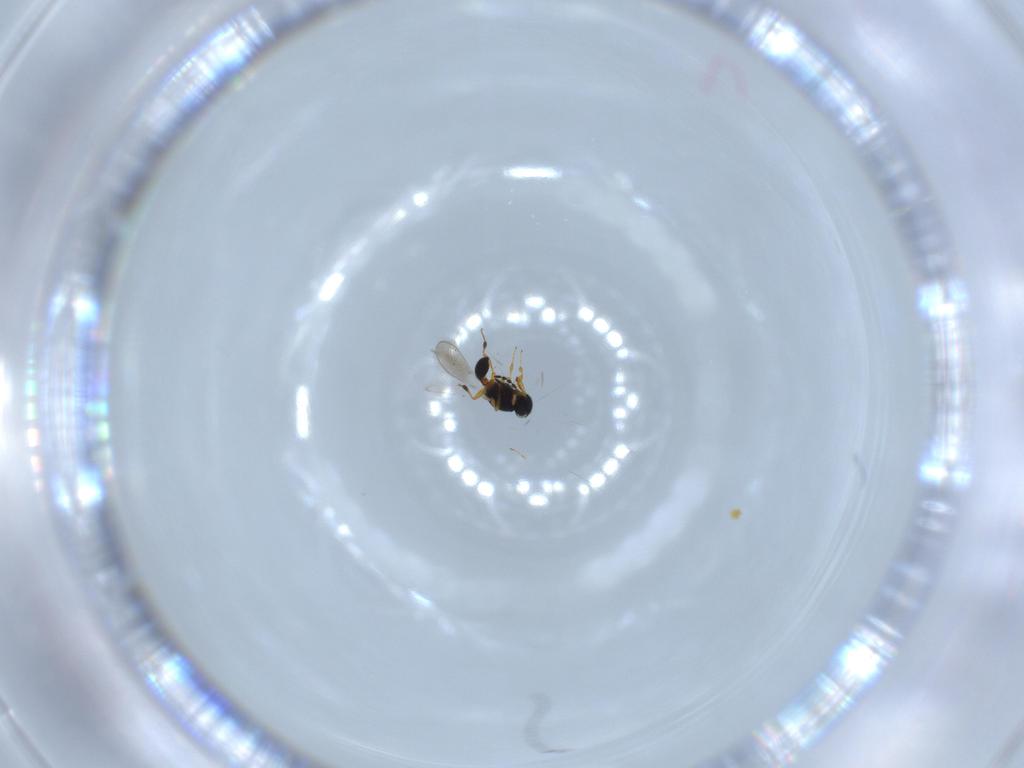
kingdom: Animalia
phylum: Arthropoda
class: Insecta
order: Hymenoptera
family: Platygastridae
